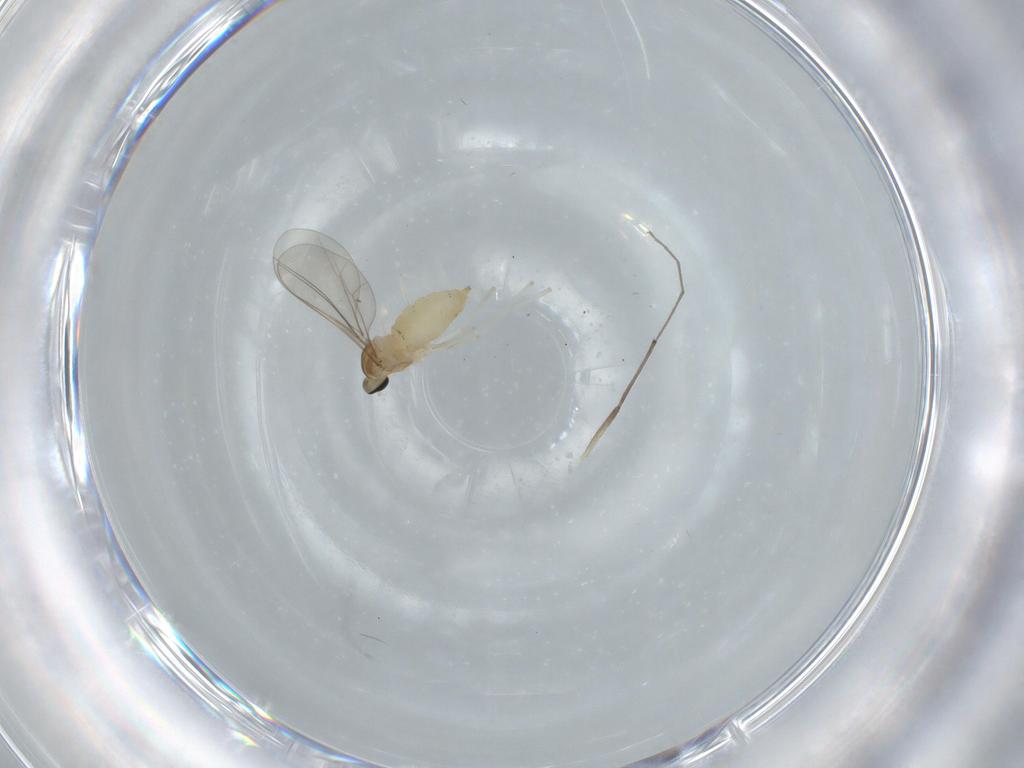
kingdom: Animalia
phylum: Arthropoda
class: Insecta
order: Diptera
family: Chironomidae
